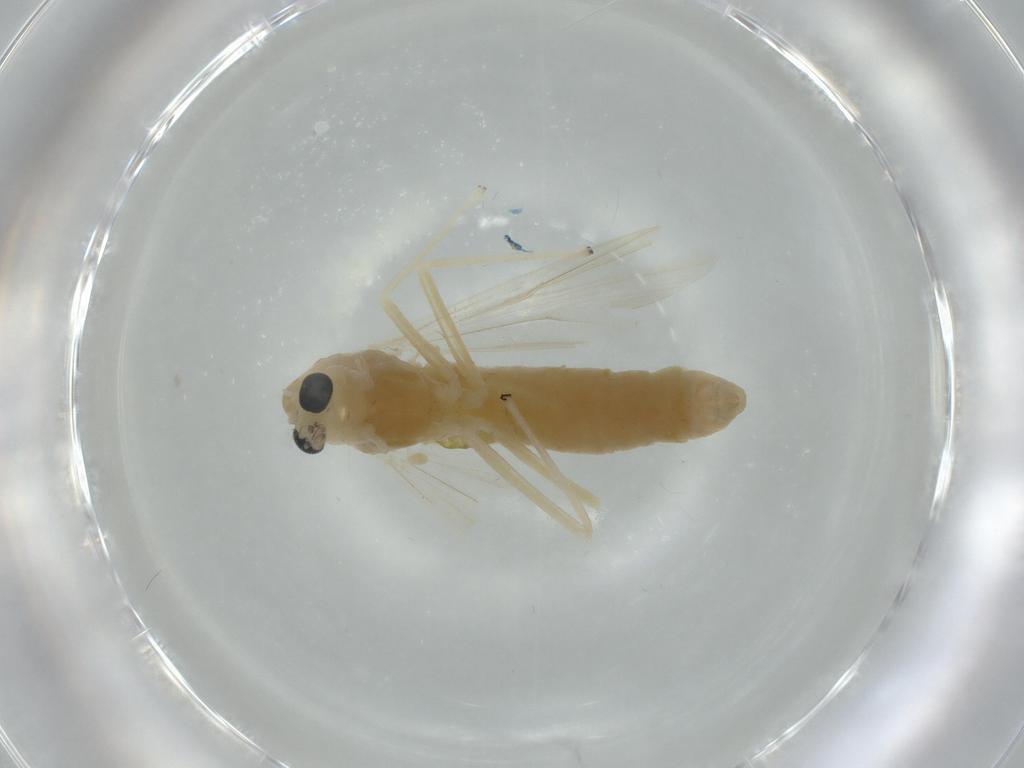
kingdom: Animalia
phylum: Arthropoda
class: Insecta
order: Diptera
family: Chironomidae
